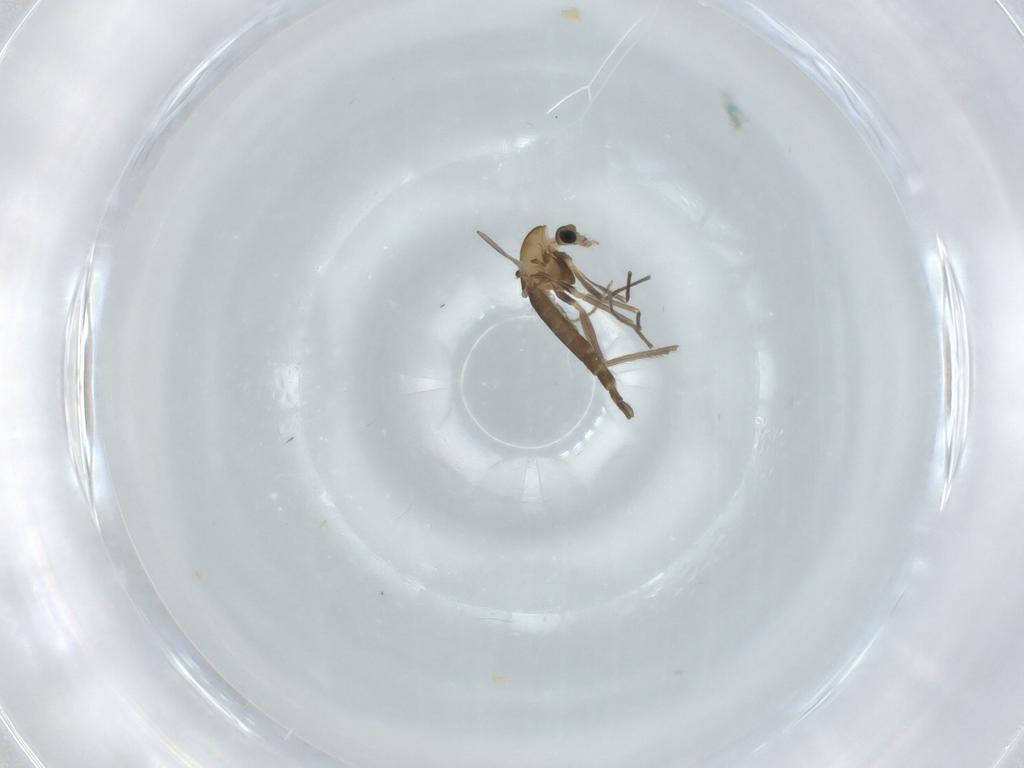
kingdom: Animalia
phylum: Arthropoda
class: Insecta
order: Diptera
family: Chironomidae
